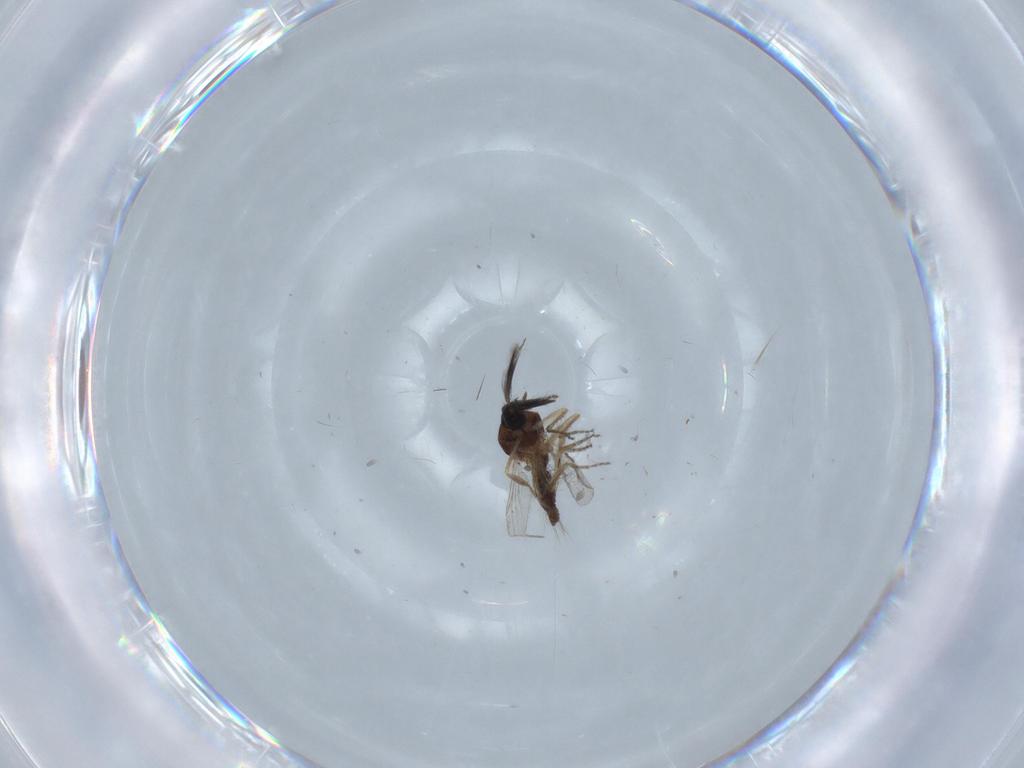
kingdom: Animalia
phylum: Arthropoda
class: Insecta
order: Diptera
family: Ceratopogonidae
